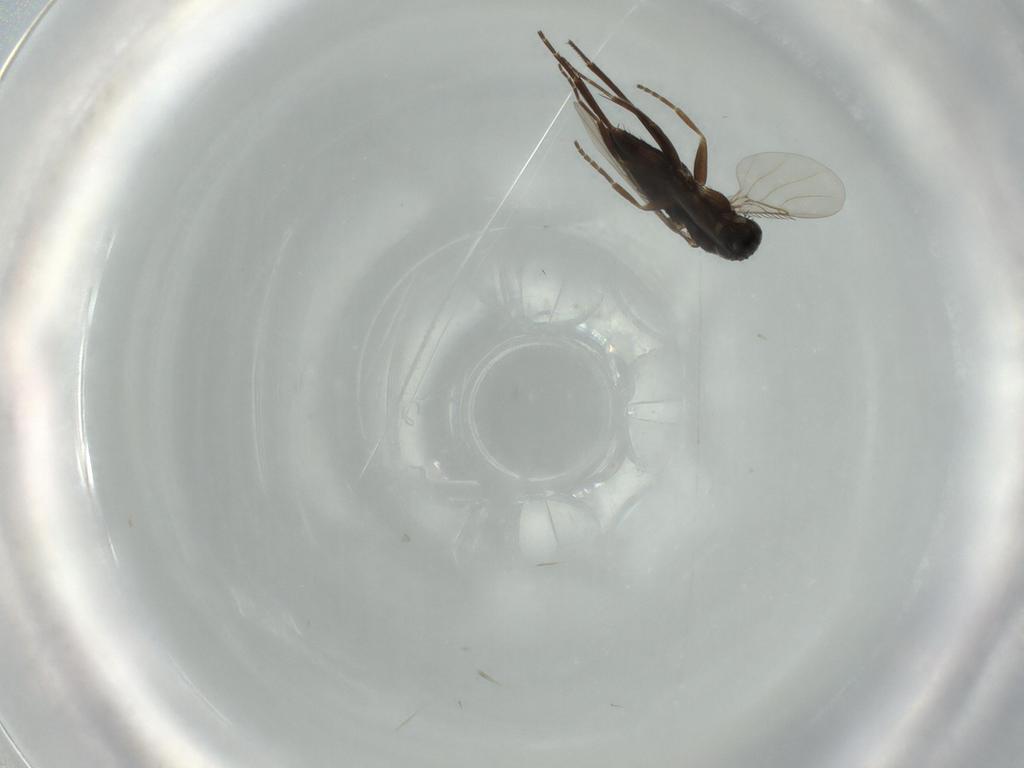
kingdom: Animalia
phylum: Arthropoda
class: Insecta
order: Diptera
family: Phoridae
